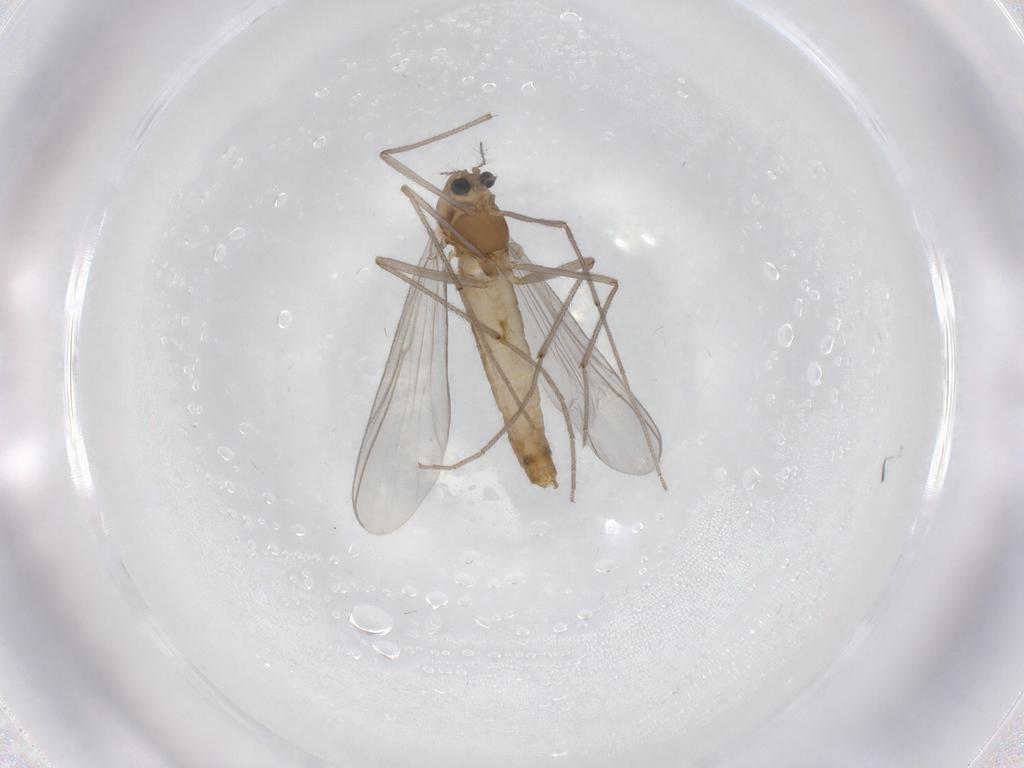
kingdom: Animalia
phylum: Arthropoda
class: Insecta
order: Diptera
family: Chironomidae
